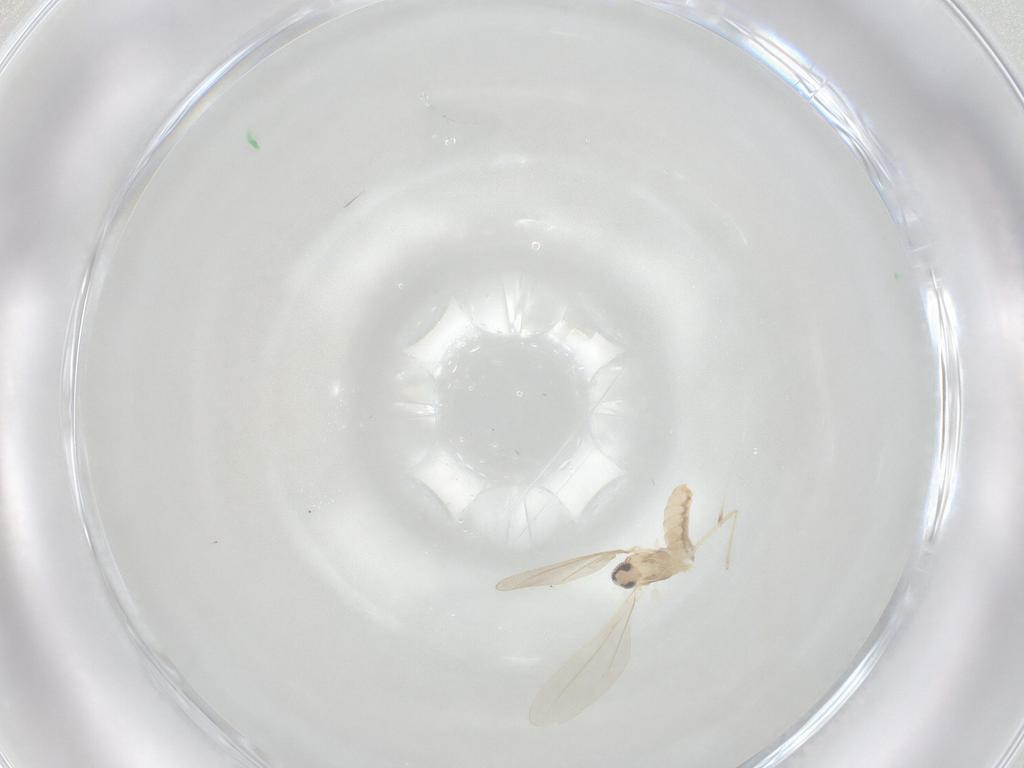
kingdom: Animalia
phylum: Arthropoda
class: Insecta
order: Diptera
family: Cecidomyiidae
